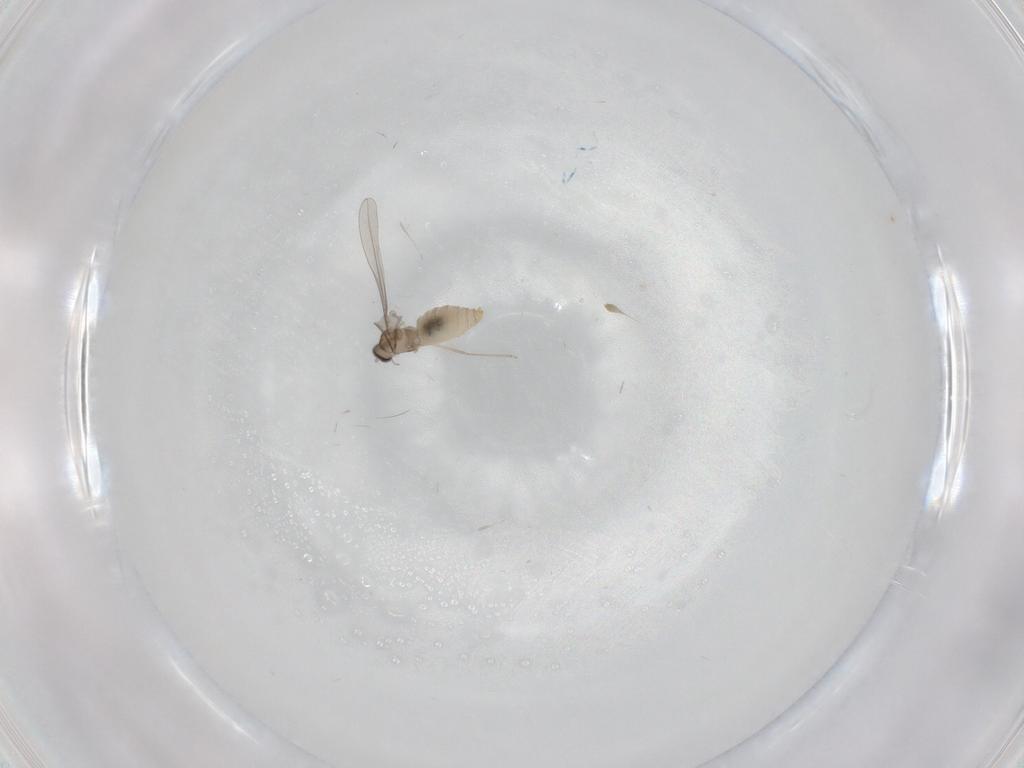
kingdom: Animalia
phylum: Arthropoda
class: Insecta
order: Diptera
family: Cecidomyiidae
